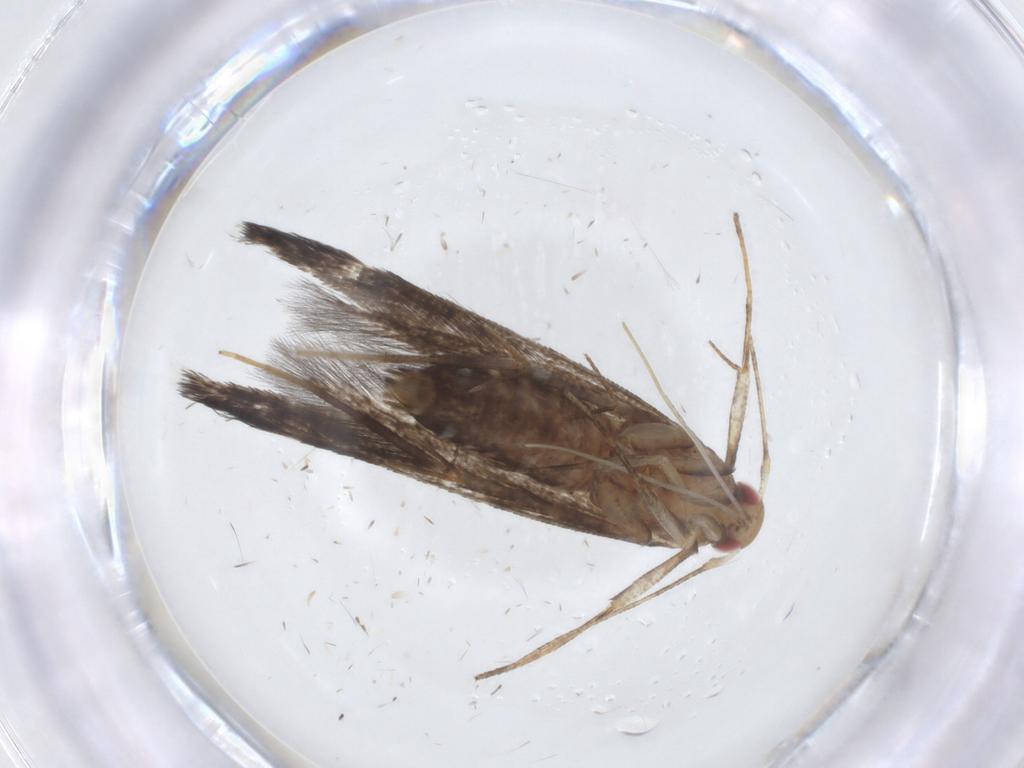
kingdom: Animalia
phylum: Arthropoda
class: Insecta
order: Lepidoptera
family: Cosmopterigidae
